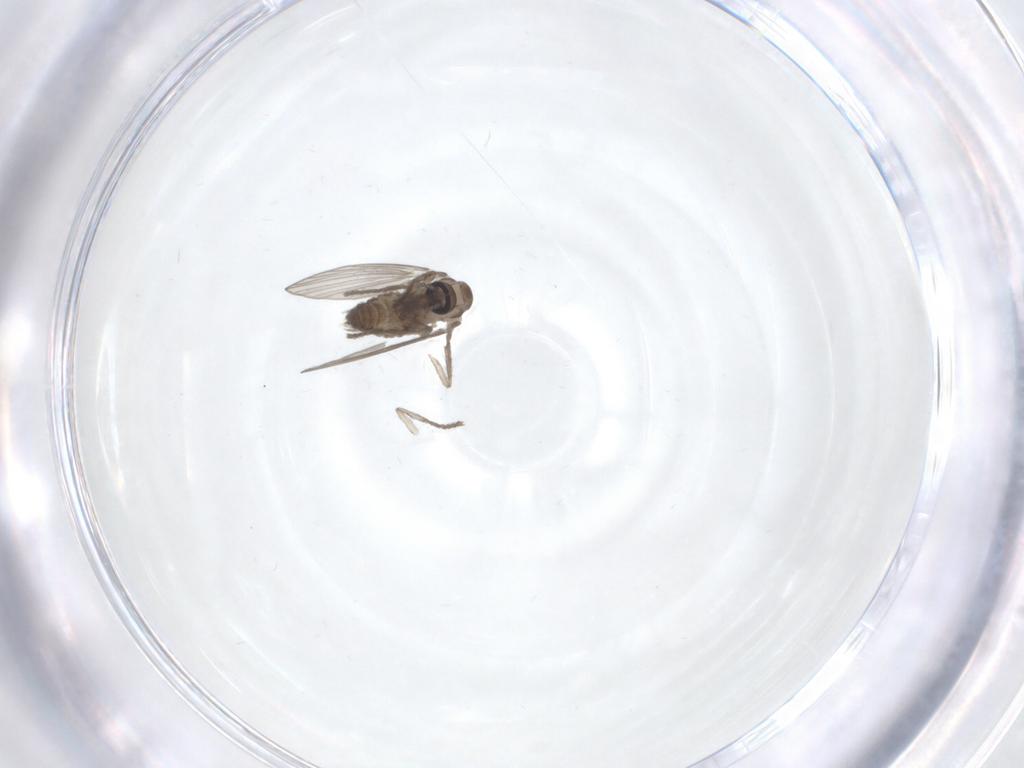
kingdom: Animalia
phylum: Arthropoda
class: Insecta
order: Diptera
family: Psychodidae
